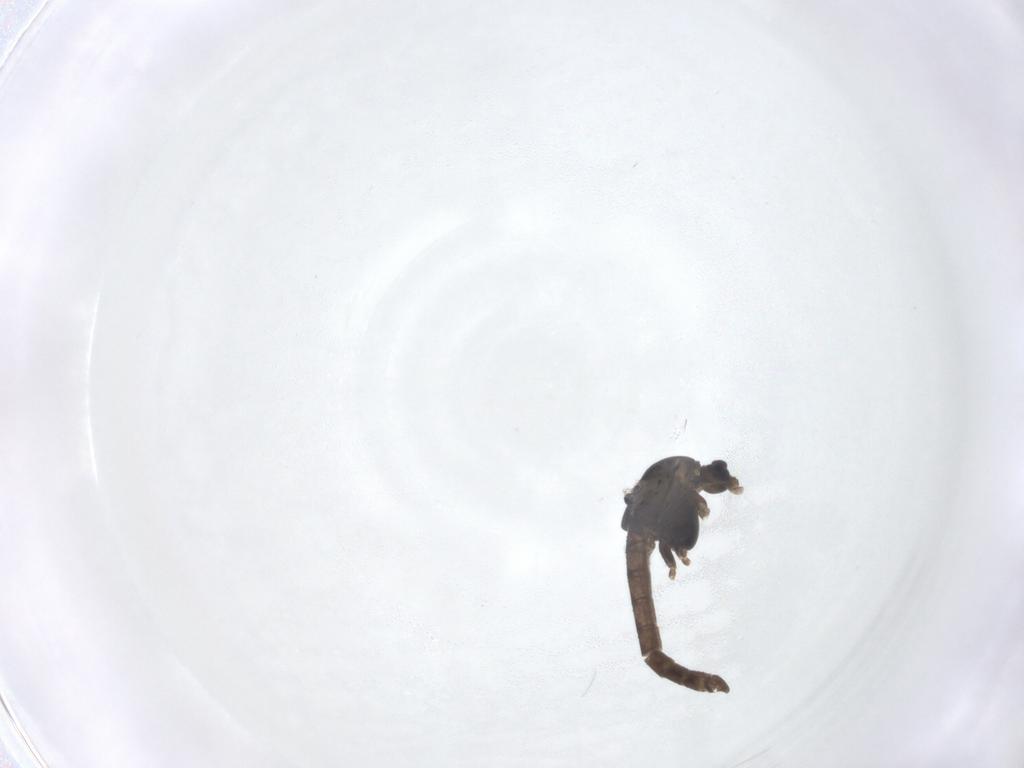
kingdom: Animalia
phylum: Arthropoda
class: Insecta
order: Diptera
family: Chironomidae
